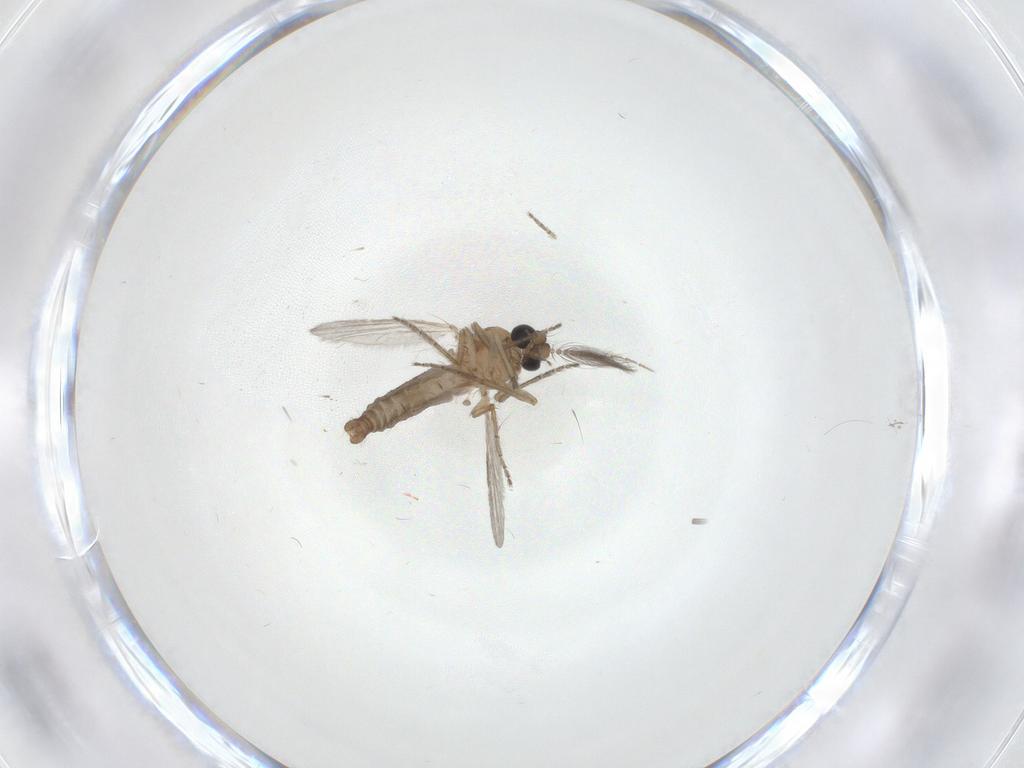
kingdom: Animalia
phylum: Arthropoda
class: Insecta
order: Diptera
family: Ceratopogonidae
